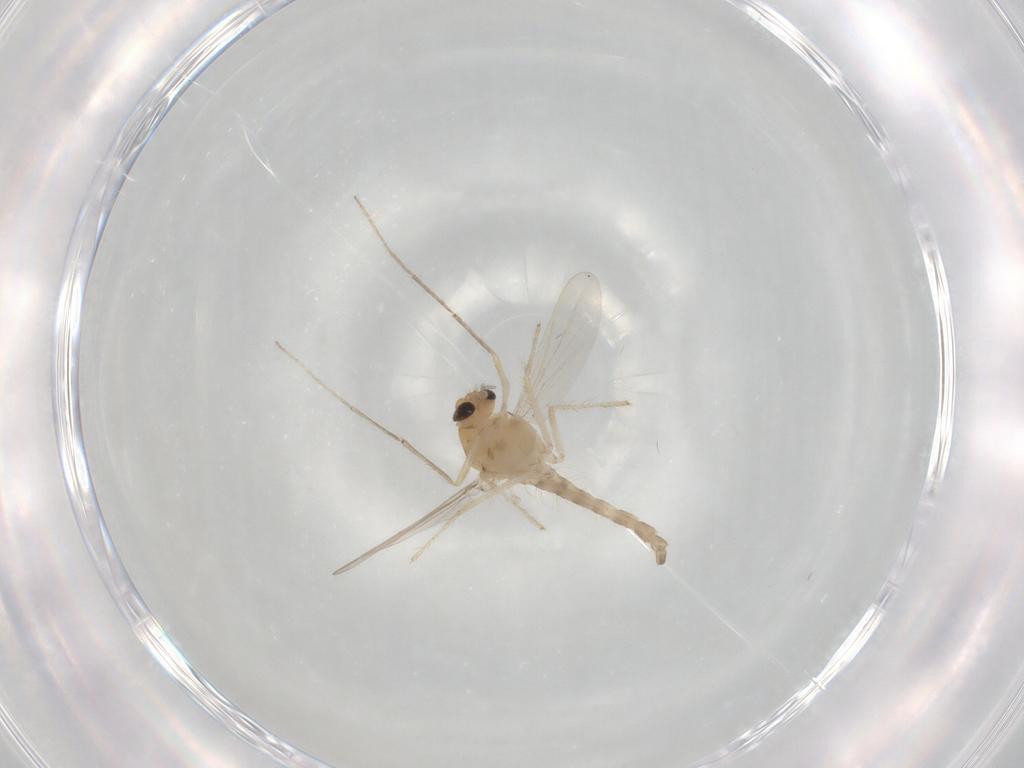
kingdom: Animalia
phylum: Arthropoda
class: Insecta
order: Diptera
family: Chironomidae
